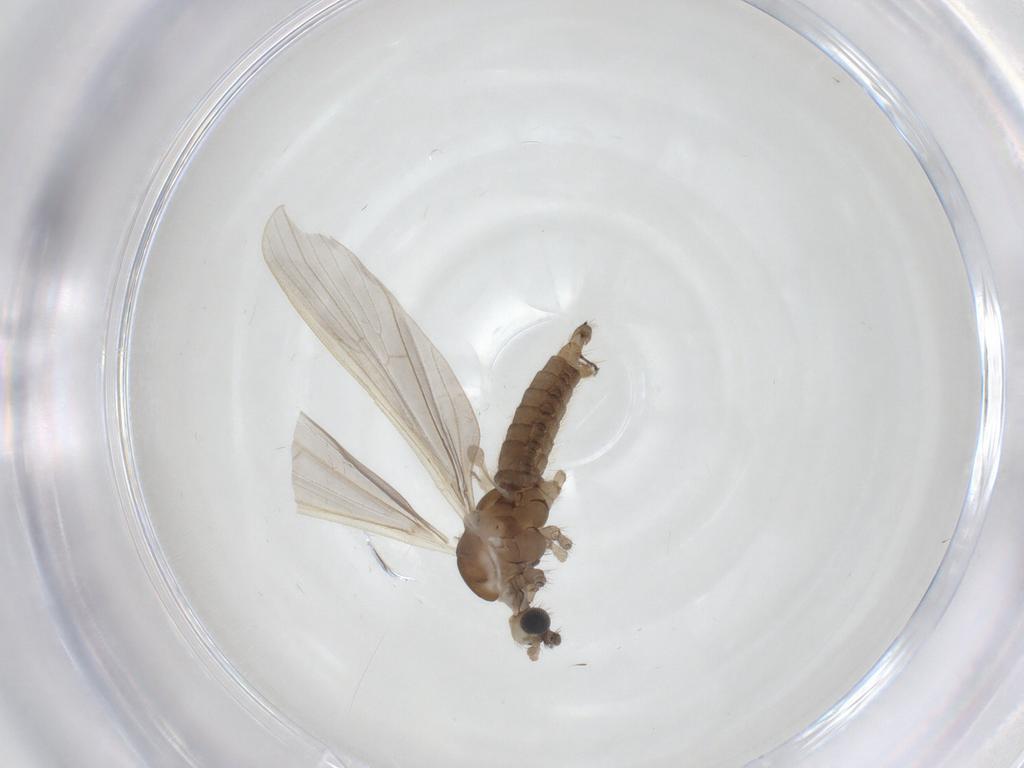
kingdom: Animalia
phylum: Arthropoda
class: Insecta
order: Diptera
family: Limoniidae
